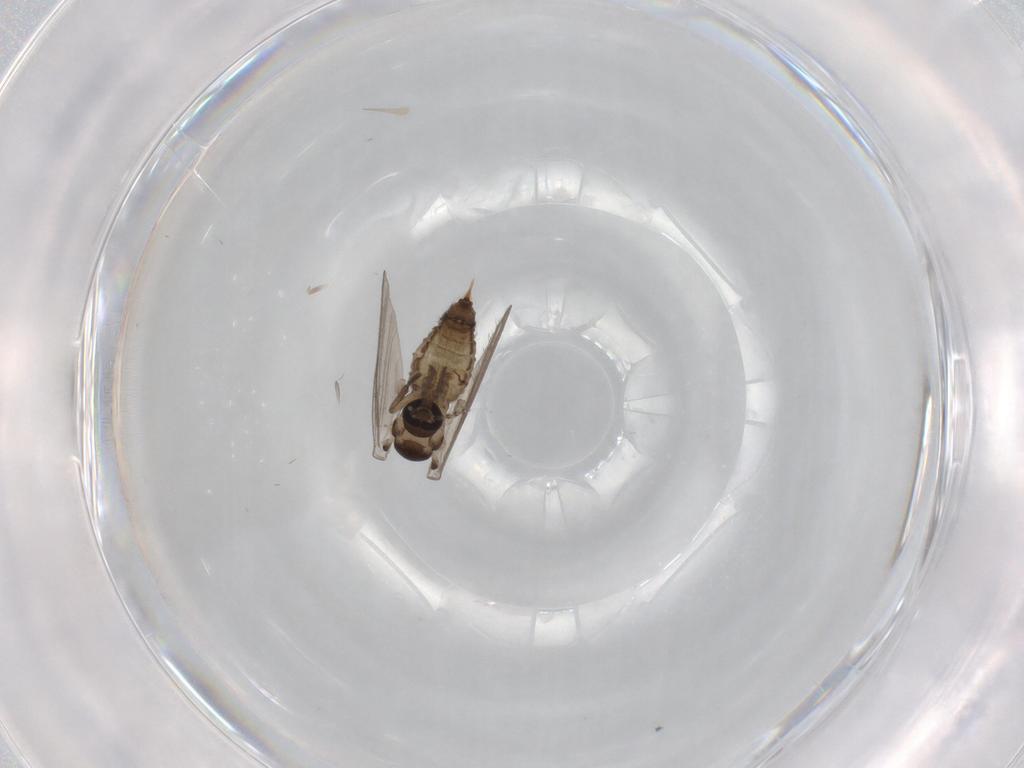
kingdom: Animalia
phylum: Arthropoda
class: Insecta
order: Diptera
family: Psychodidae
